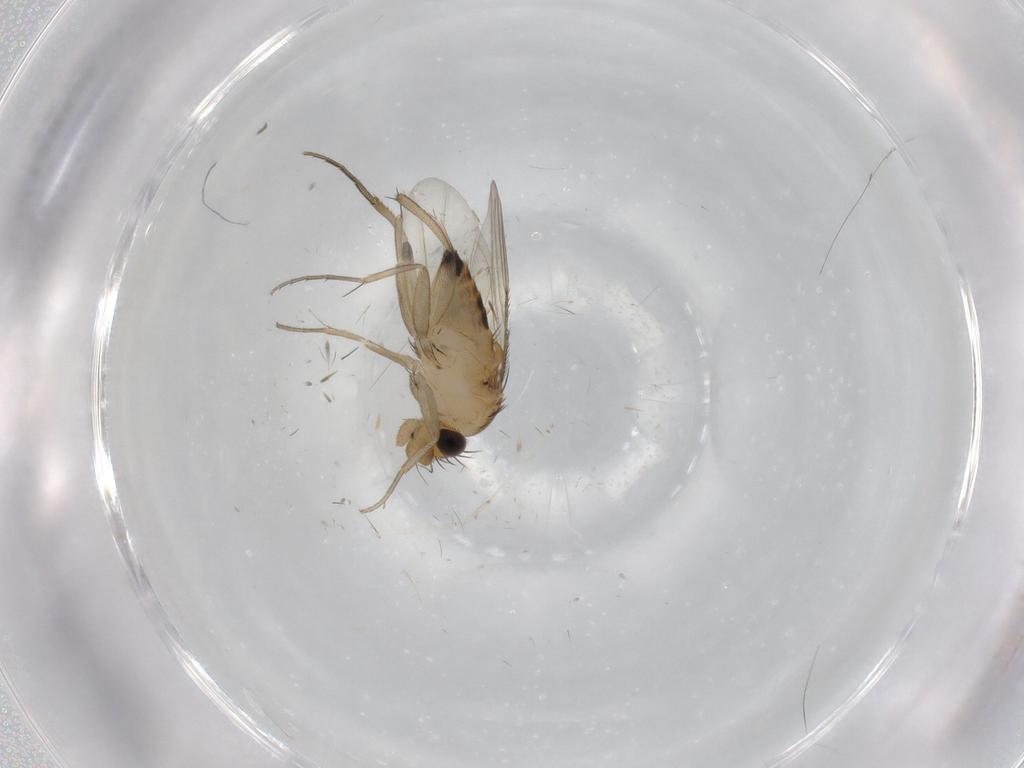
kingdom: Animalia
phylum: Arthropoda
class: Insecta
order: Diptera
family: Phoridae
